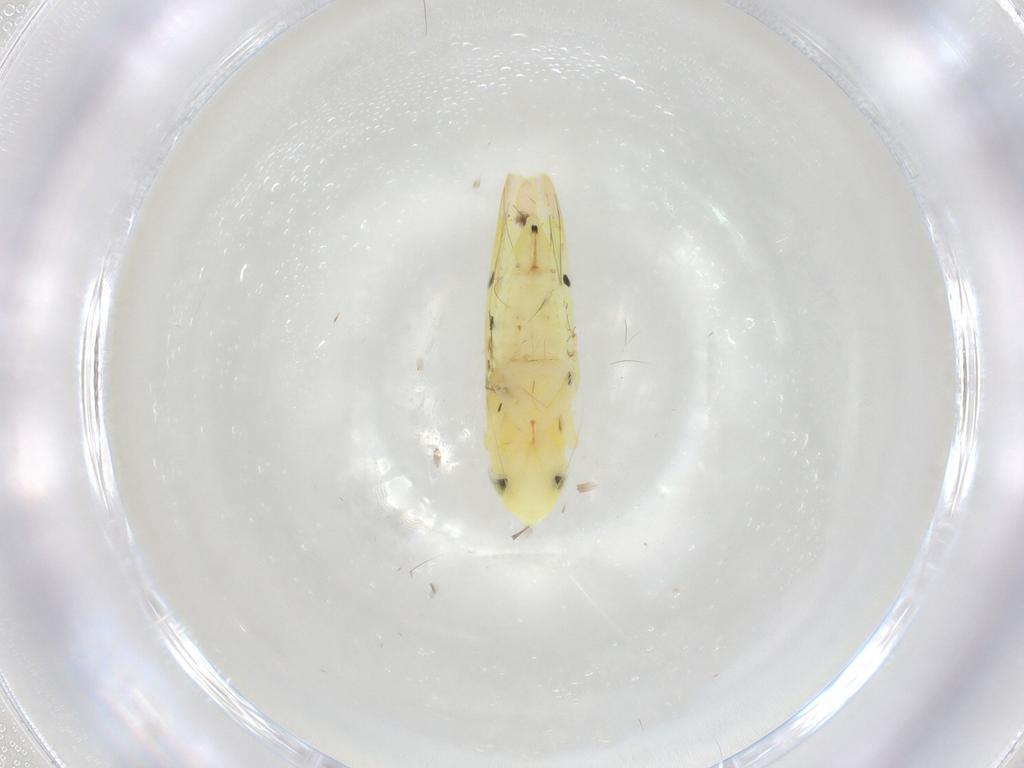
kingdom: Animalia
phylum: Arthropoda
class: Insecta
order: Hemiptera
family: Cicadellidae
